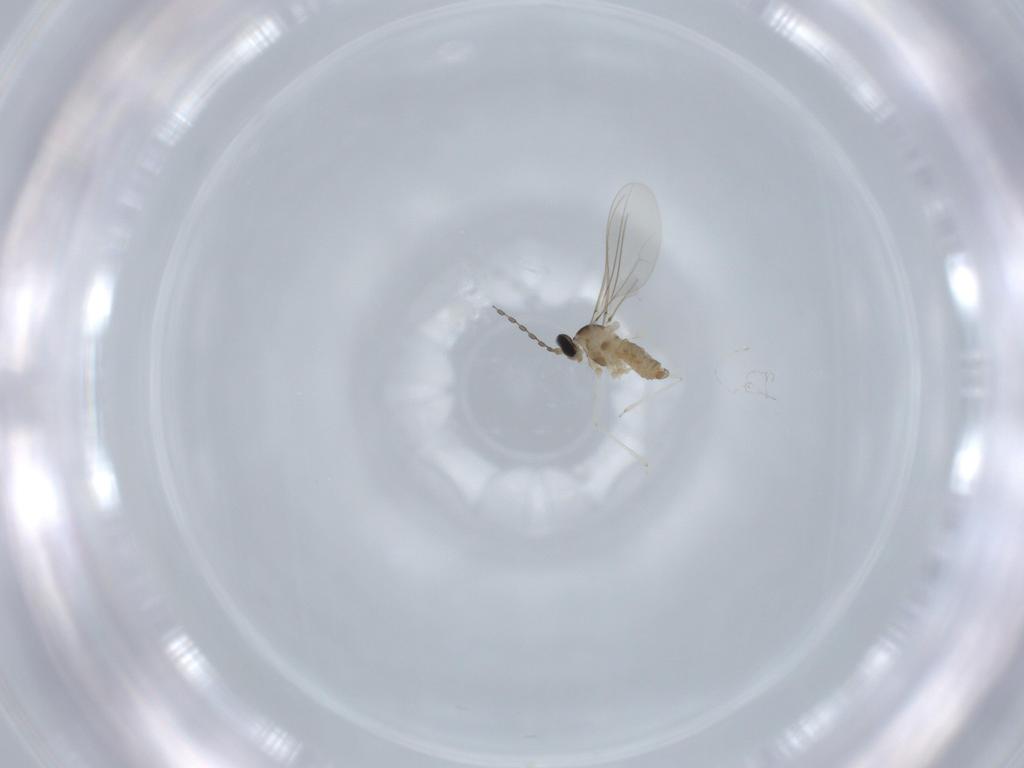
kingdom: Animalia
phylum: Arthropoda
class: Insecta
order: Diptera
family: Cecidomyiidae
